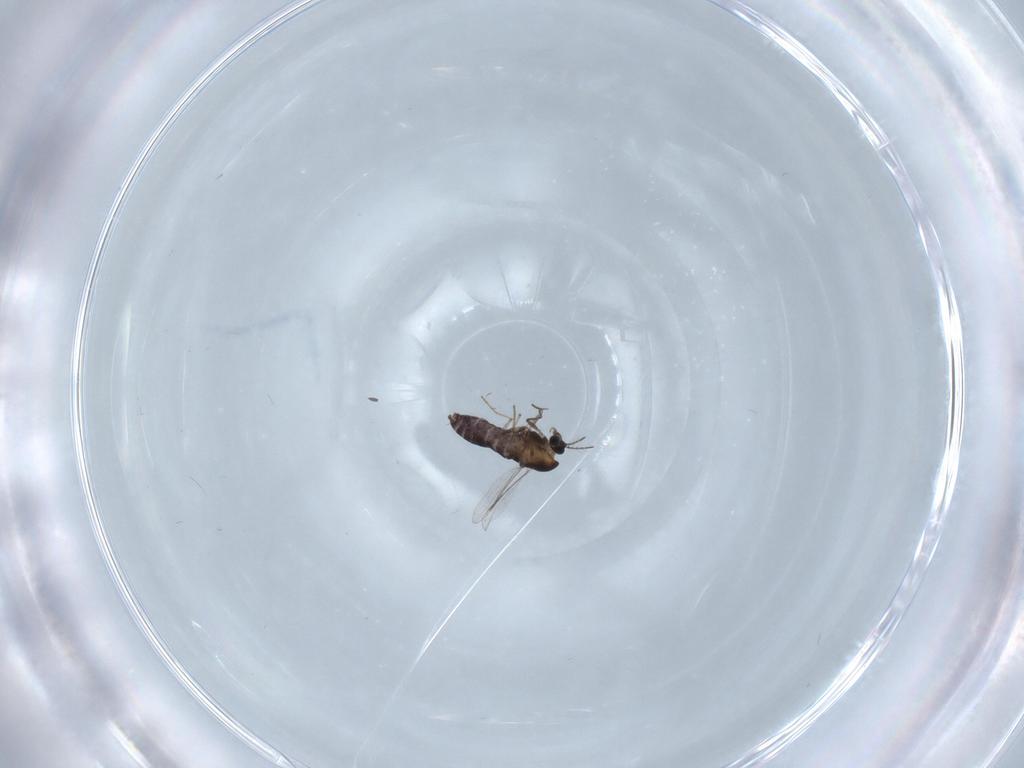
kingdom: Animalia
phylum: Arthropoda
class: Insecta
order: Diptera
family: Chironomidae
